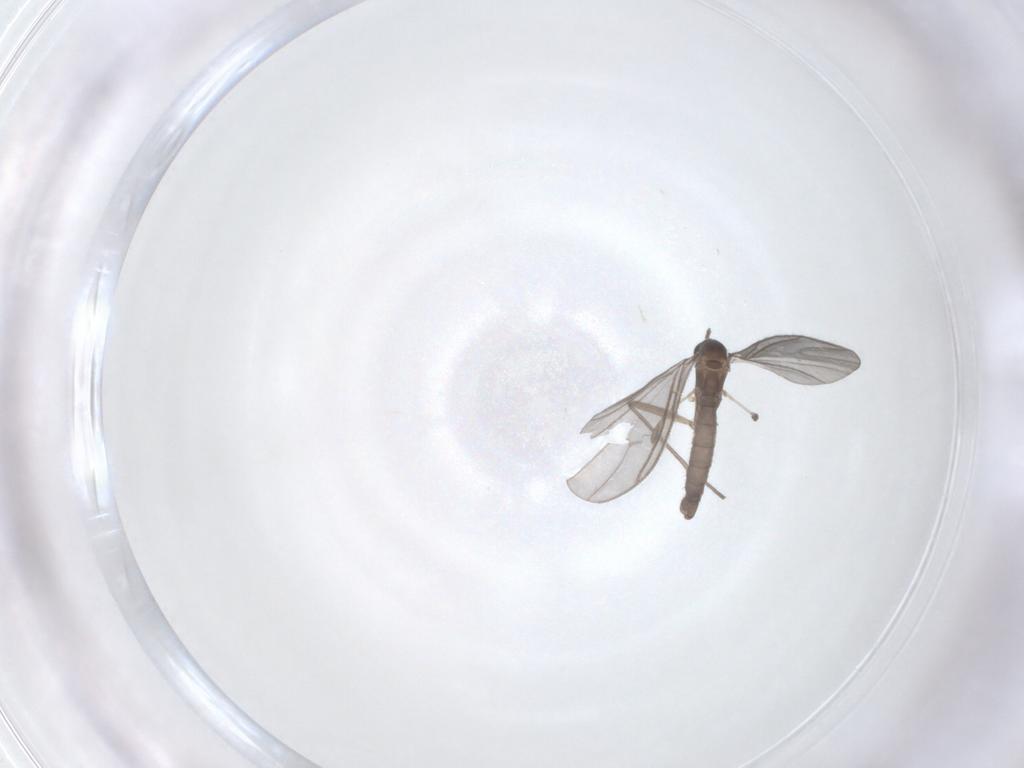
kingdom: Animalia
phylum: Arthropoda
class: Insecta
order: Diptera
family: Sciaridae
